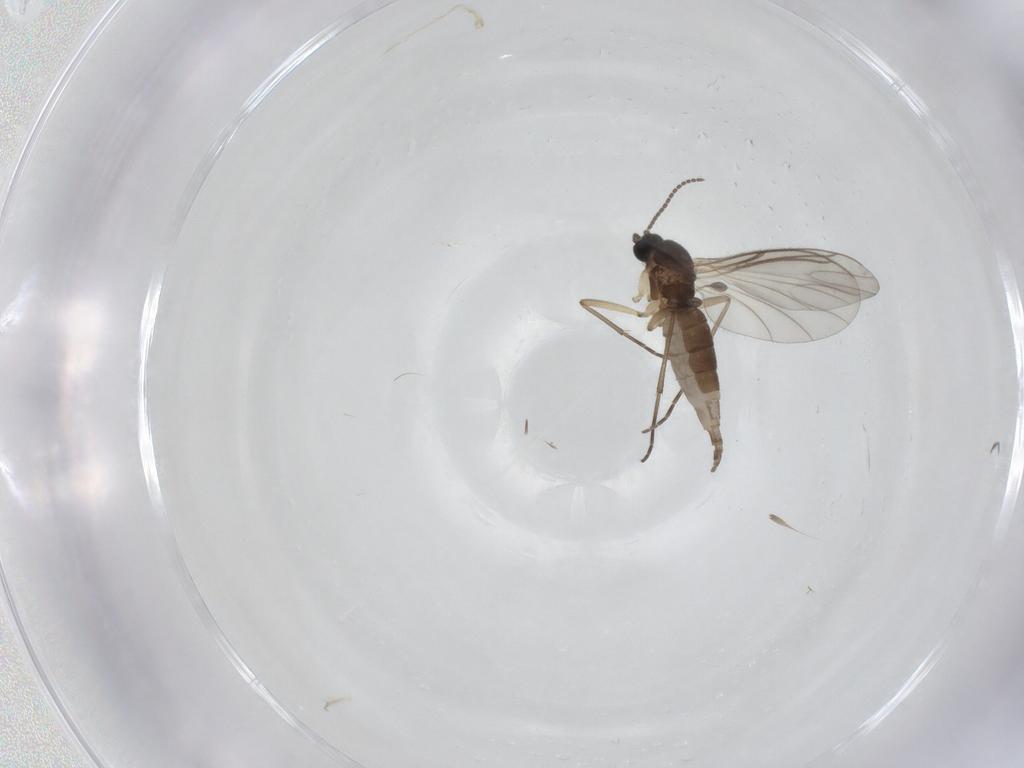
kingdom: Animalia
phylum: Arthropoda
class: Insecta
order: Diptera
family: Sciaridae
